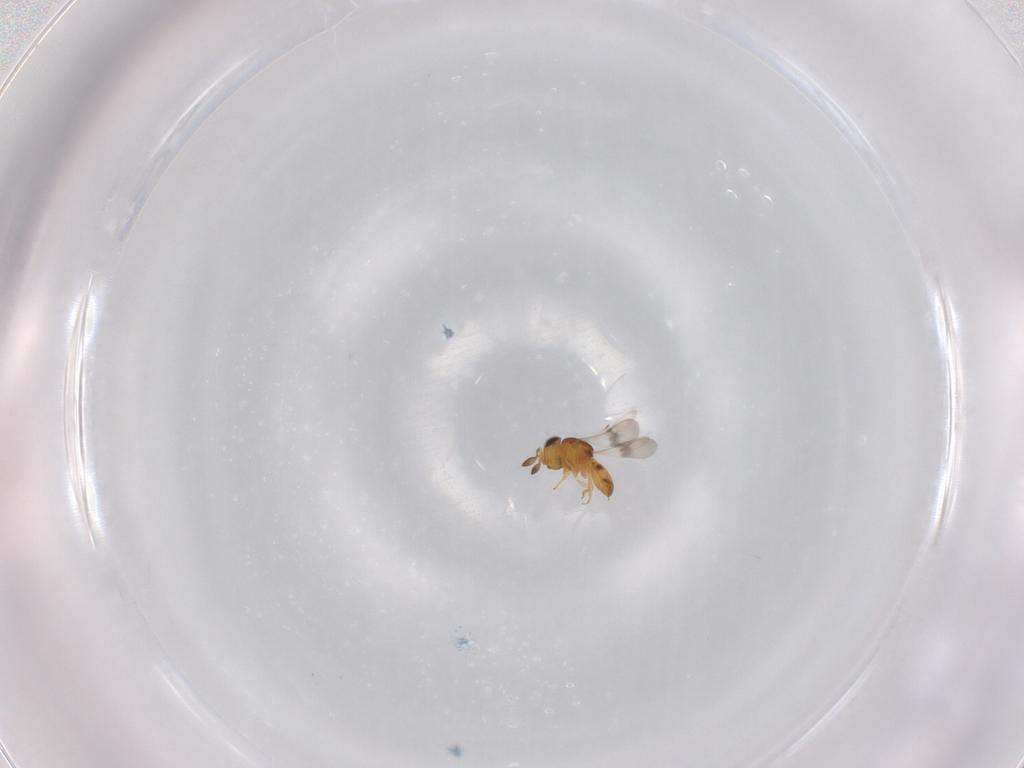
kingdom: Animalia
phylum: Arthropoda
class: Insecta
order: Hymenoptera
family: Scelionidae
